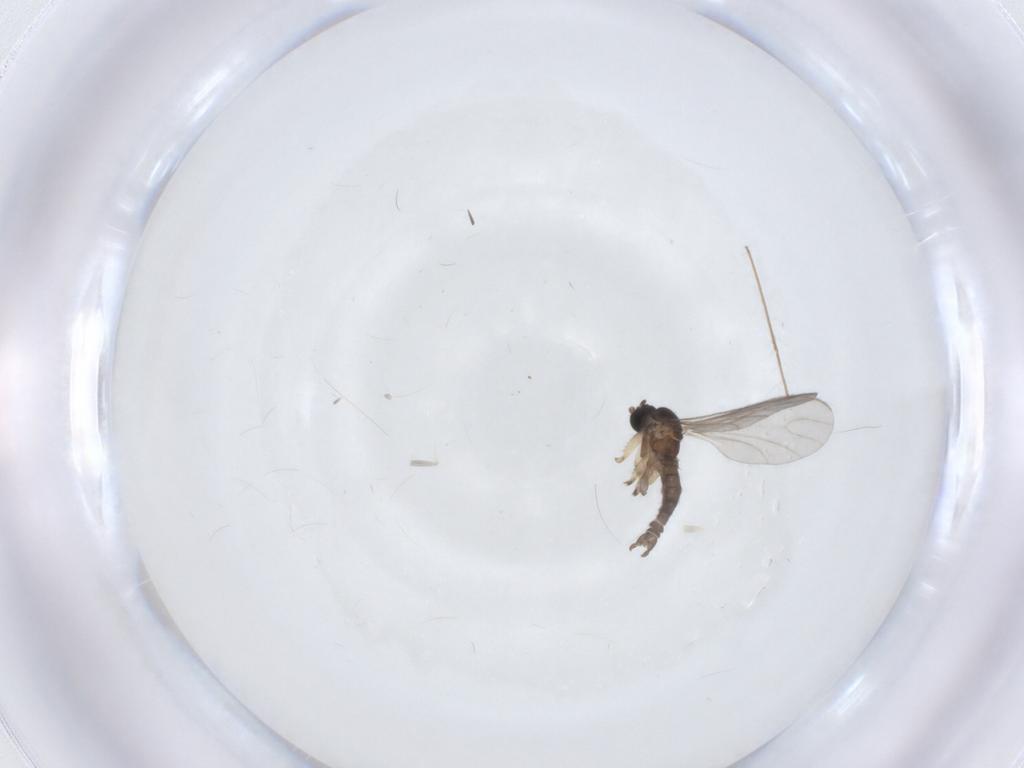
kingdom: Animalia
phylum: Arthropoda
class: Insecta
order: Diptera
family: Sciaridae
